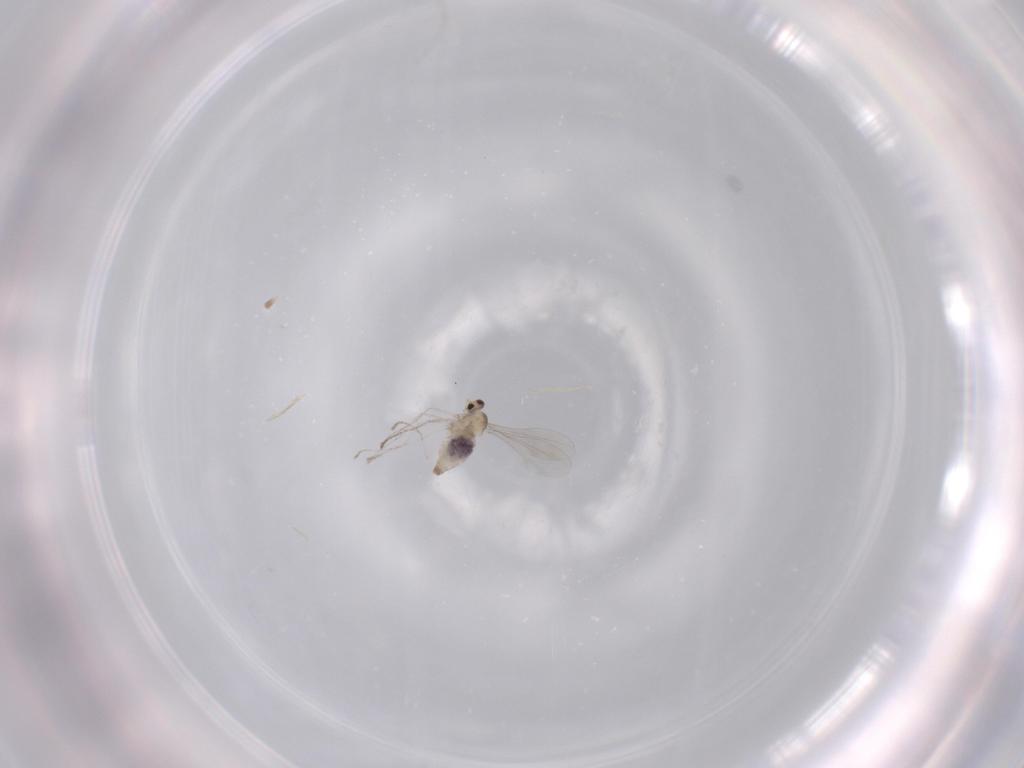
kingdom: Animalia
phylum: Arthropoda
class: Insecta
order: Diptera
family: Cecidomyiidae
